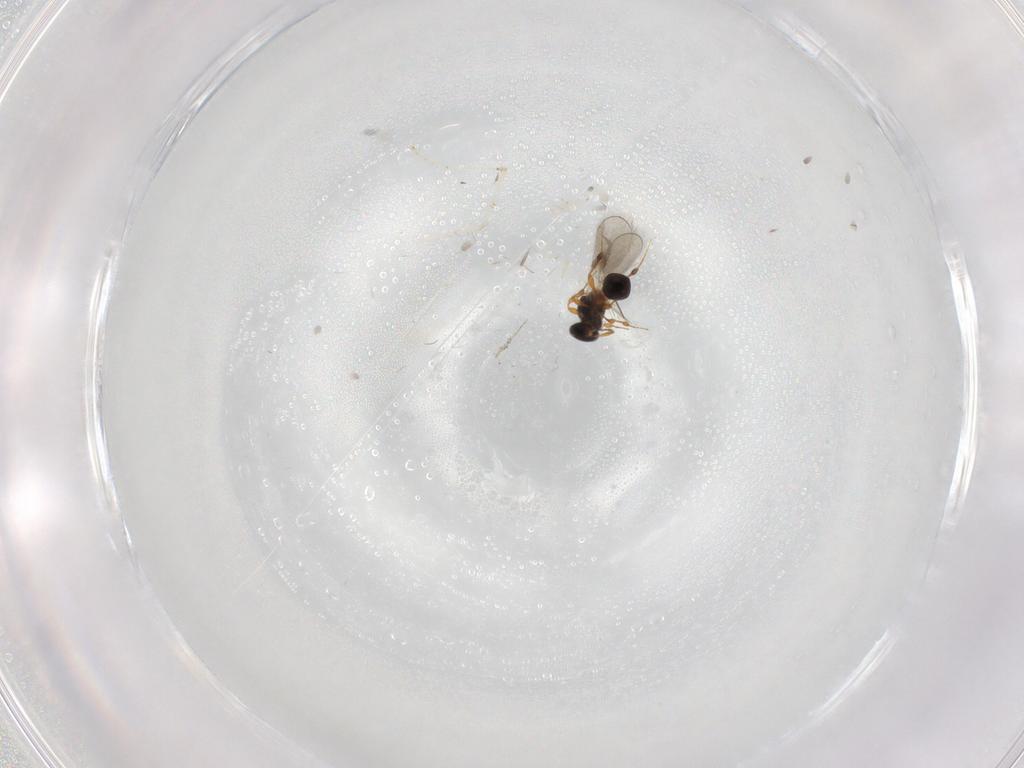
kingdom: Animalia
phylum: Arthropoda
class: Insecta
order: Hymenoptera
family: Platygastridae
